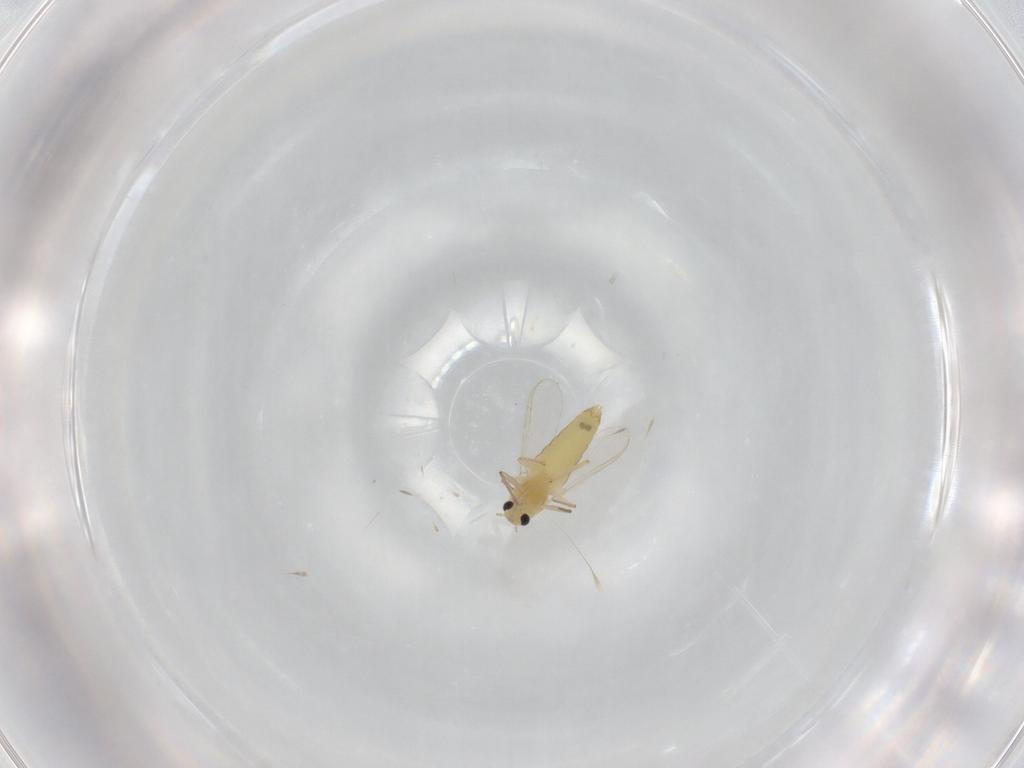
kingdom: Animalia
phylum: Arthropoda
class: Insecta
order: Diptera
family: Chironomidae
